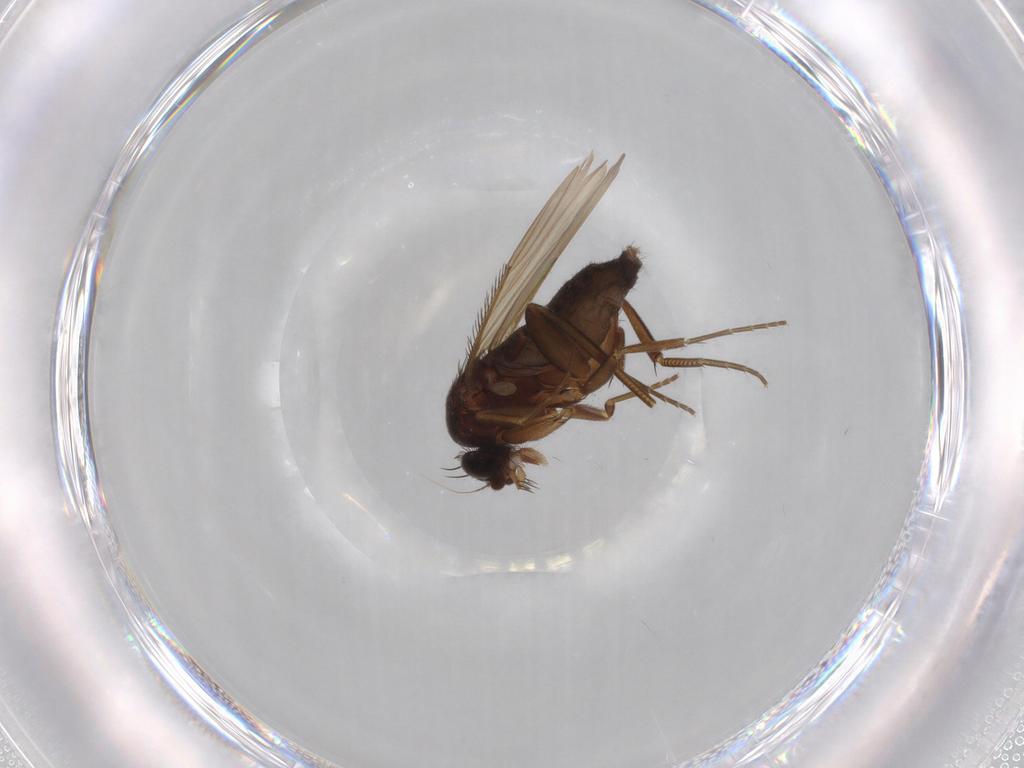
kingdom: Animalia
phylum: Arthropoda
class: Insecta
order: Diptera
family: Phoridae
